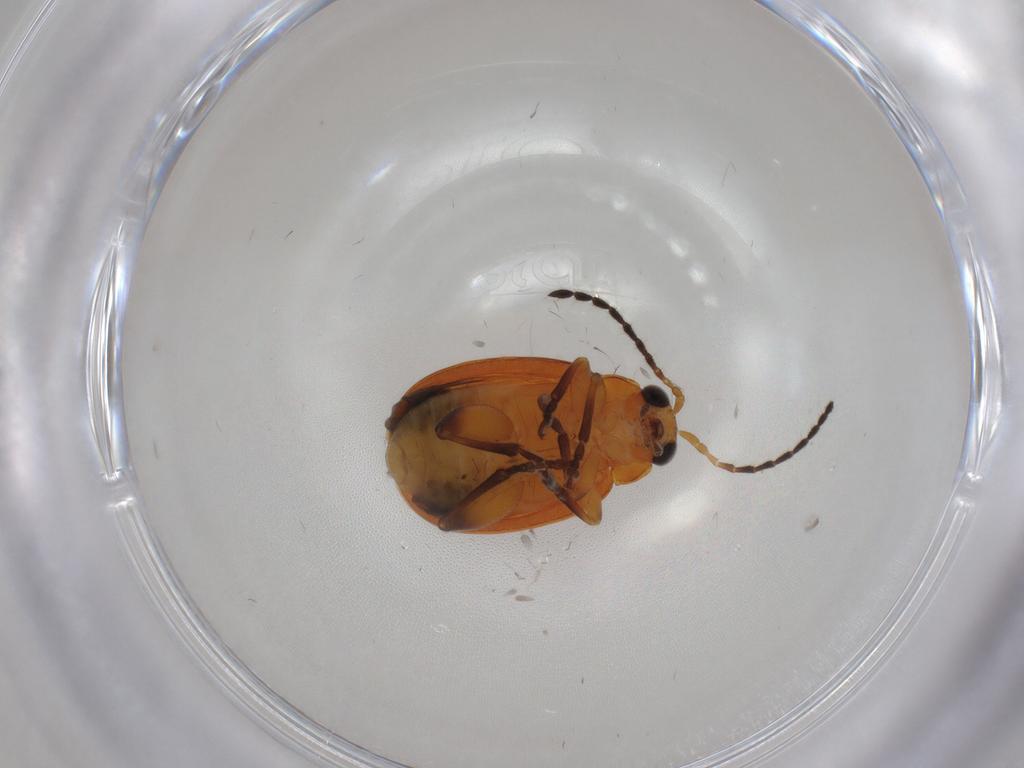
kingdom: Animalia
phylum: Arthropoda
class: Insecta
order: Coleoptera
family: Chrysomelidae
